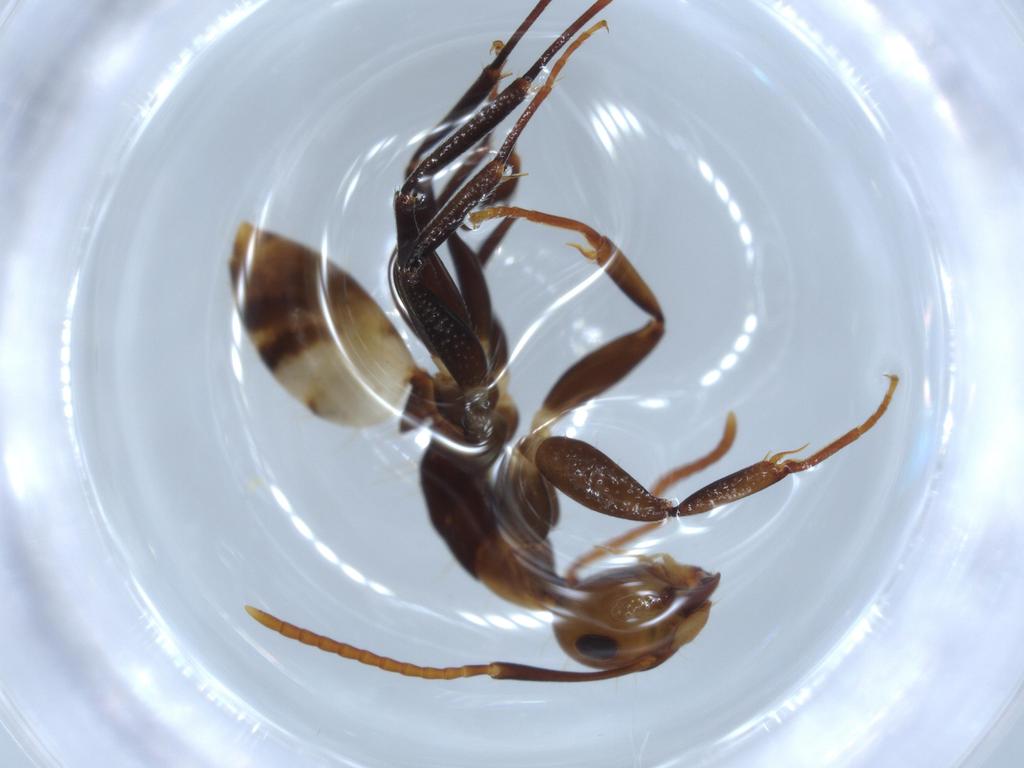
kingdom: Animalia
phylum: Arthropoda
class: Insecta
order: Hymenoptera
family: Formicidae
